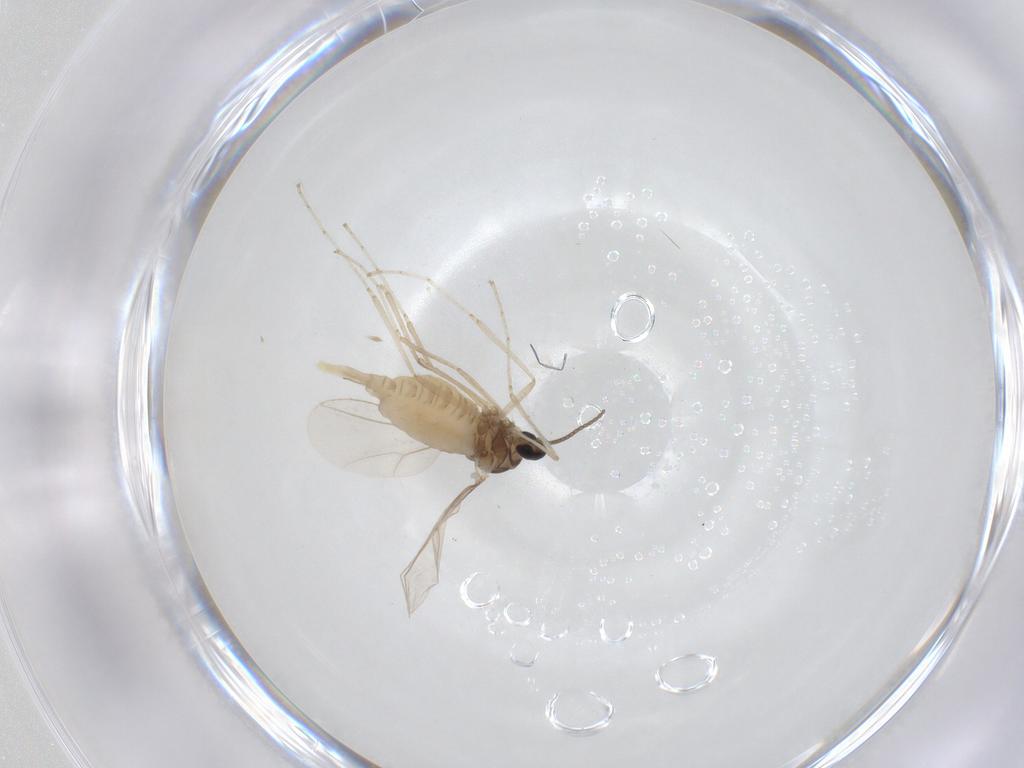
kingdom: Animalia
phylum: Arthropoda
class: Insecta
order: Diptera
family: Cecidomyiidae
